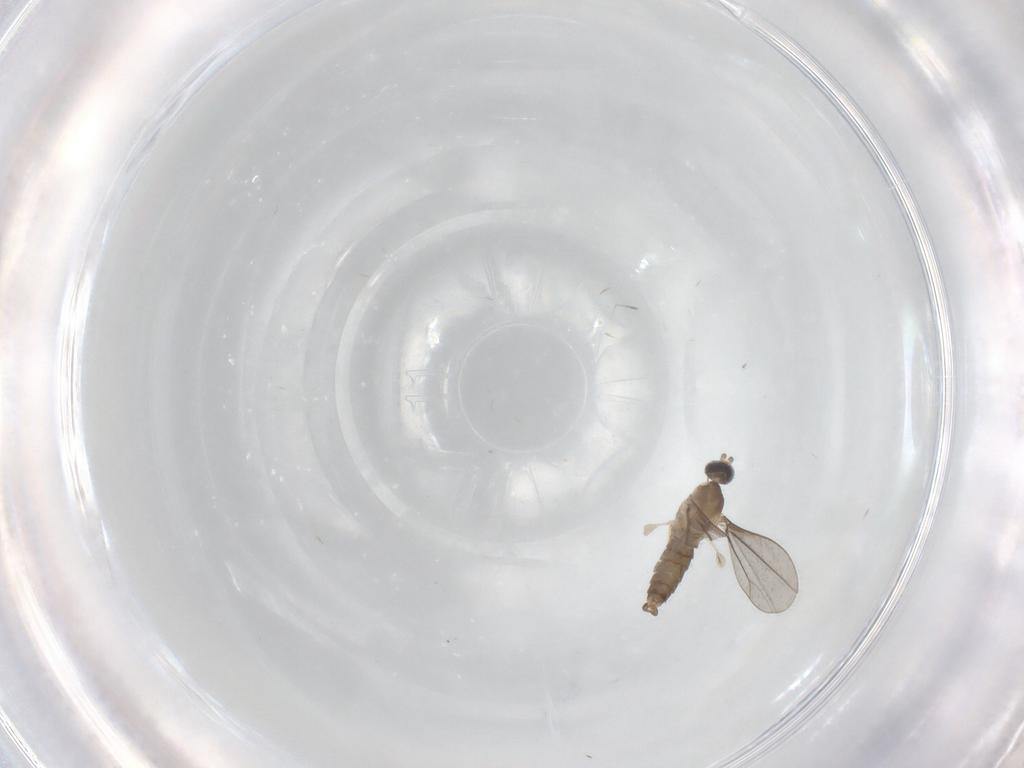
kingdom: Animalia
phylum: Arthropoda
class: Insecta
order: Diptera
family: Cecidomyiidae
